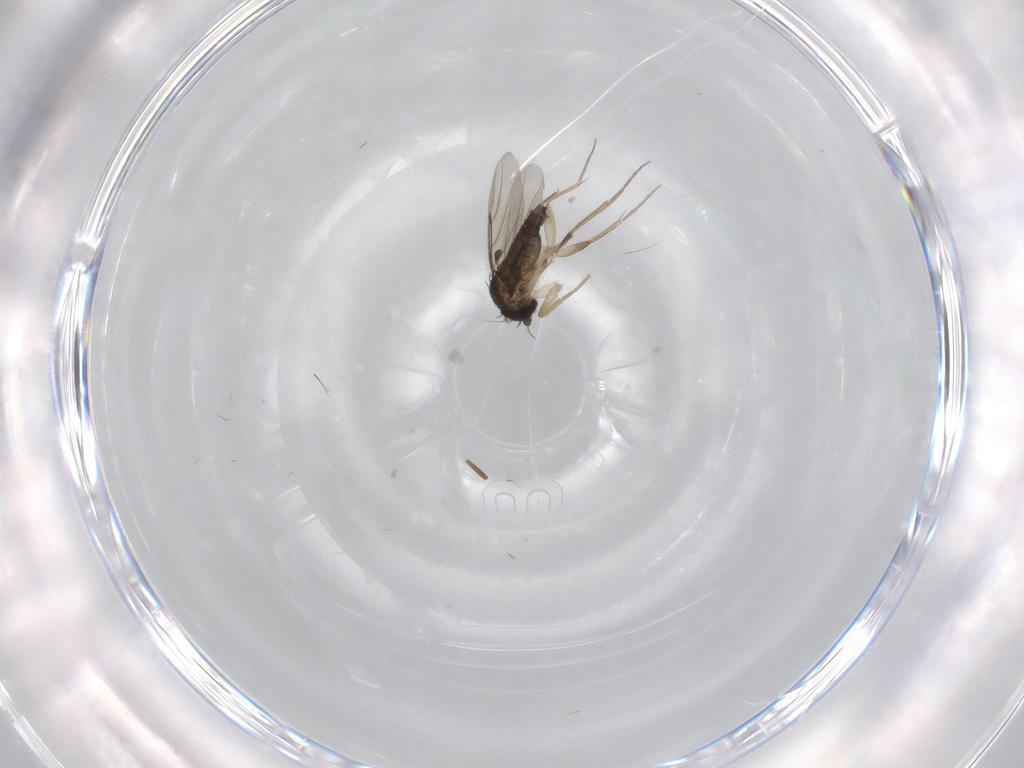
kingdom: Animalia
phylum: Arthropoda
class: Insecta
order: Diptera
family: Phoridae
